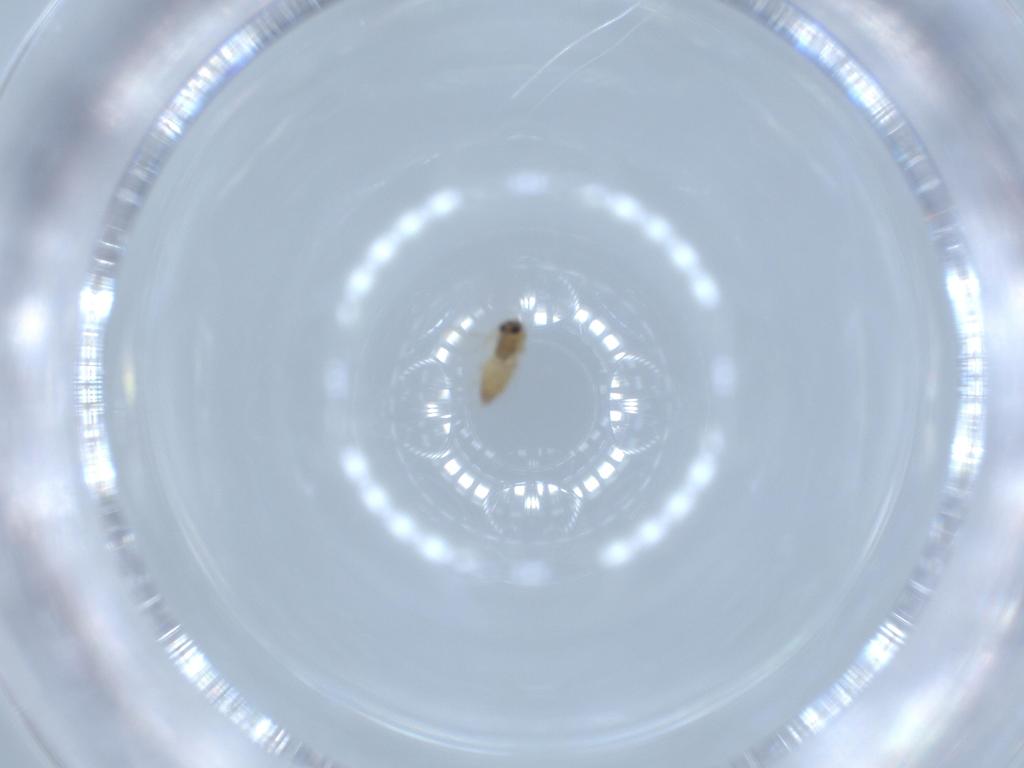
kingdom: Animalia
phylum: Arthropoda
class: Insecta
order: Diptera
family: Chironomidae
